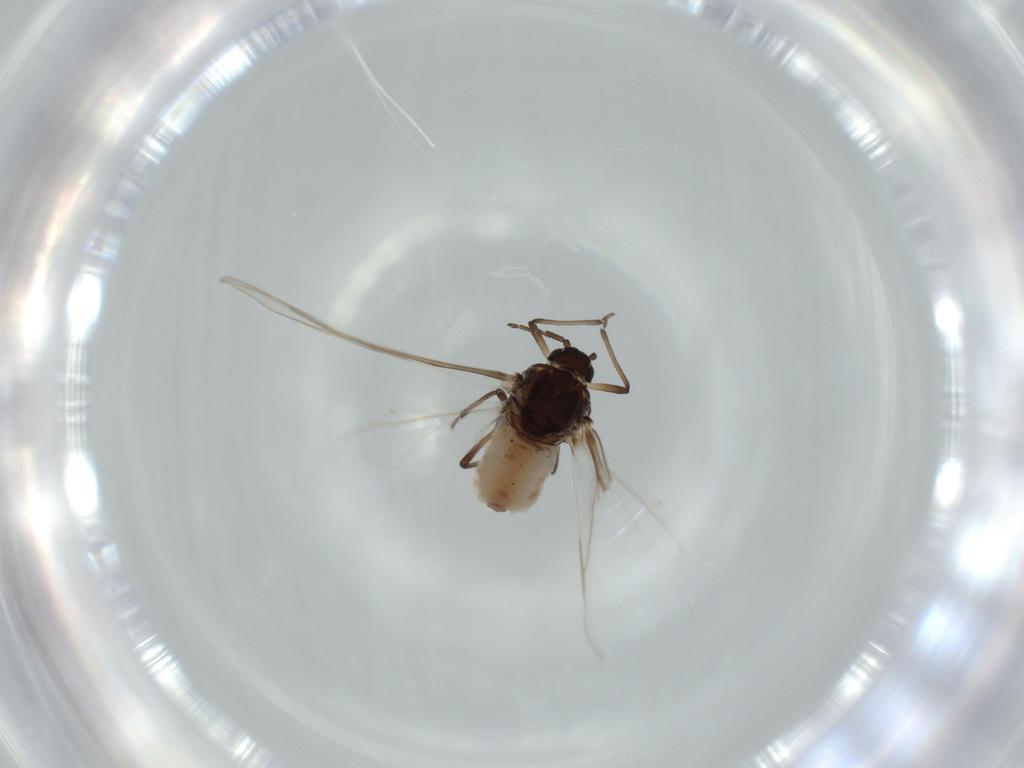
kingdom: Animalia
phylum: Arthropoda
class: Insecta
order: Hemiptera
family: Aphididae
